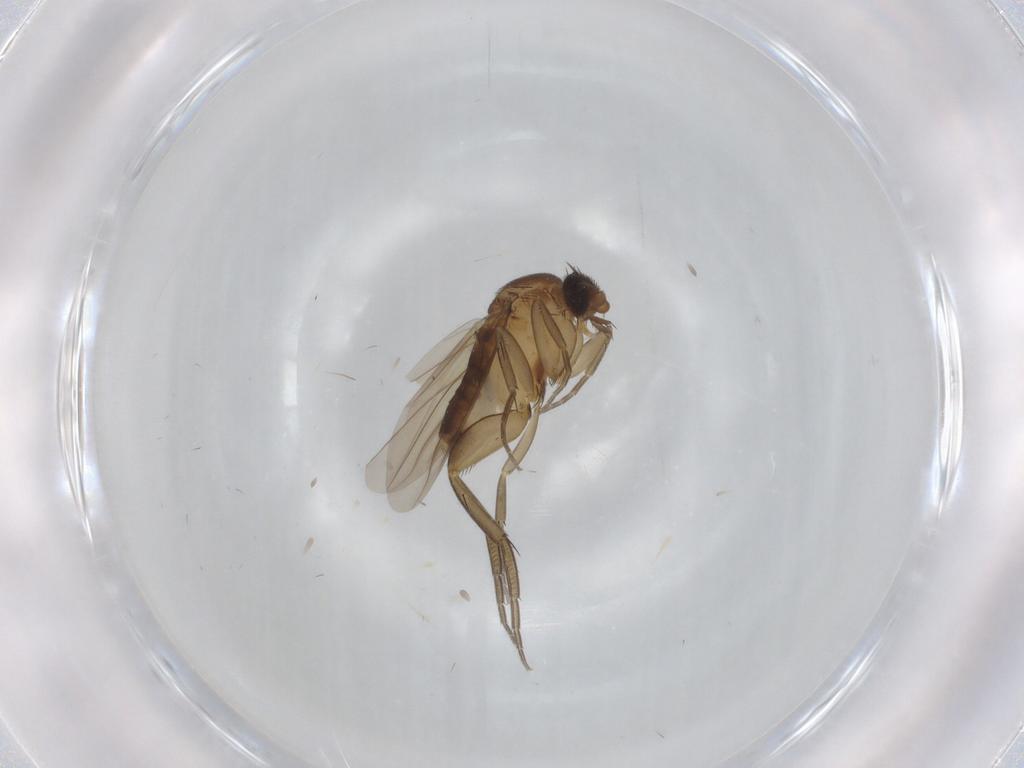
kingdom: Animalia
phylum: Arthropoda
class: Insecta
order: Diptera
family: Phoridae
